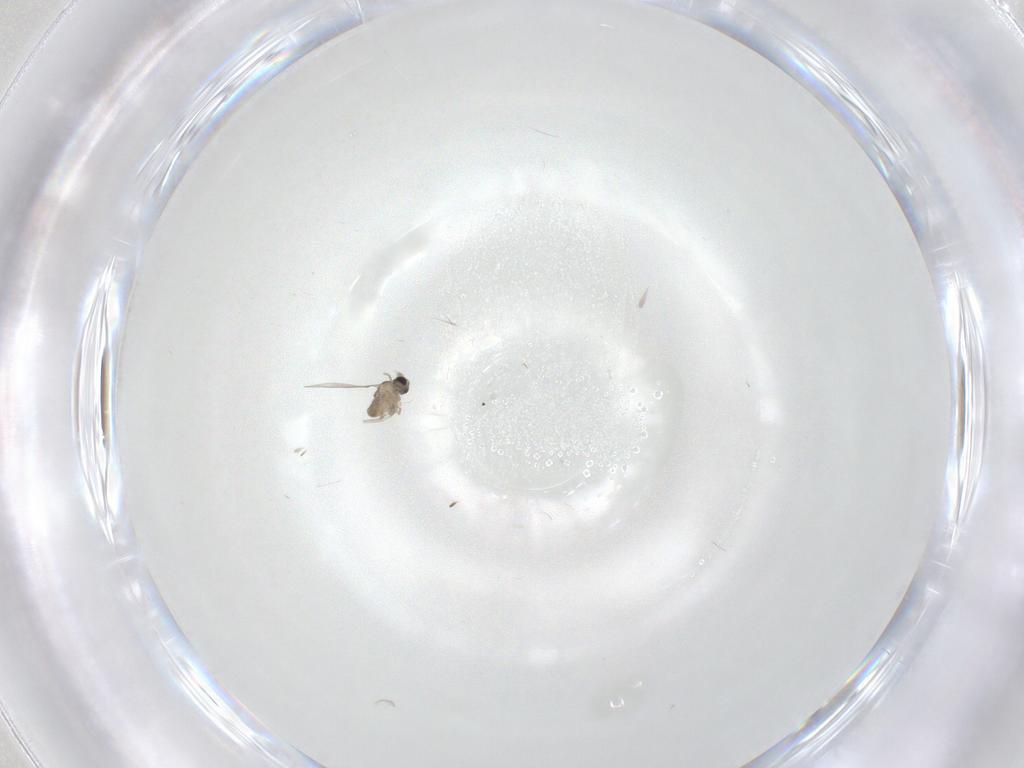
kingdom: Animalia
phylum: Arthropoda
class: Insecta
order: Diptera
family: Cecidomyiidae
